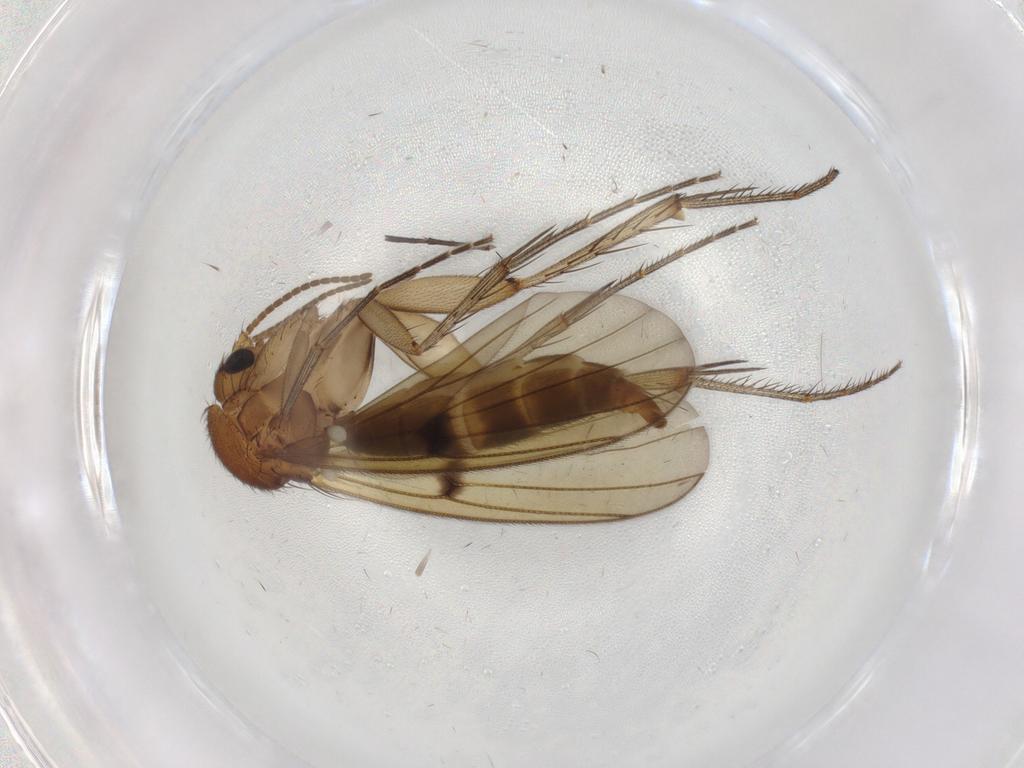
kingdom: Animalia
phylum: Arthropoda
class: Insecta
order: Diptera
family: Mycetophilidae
